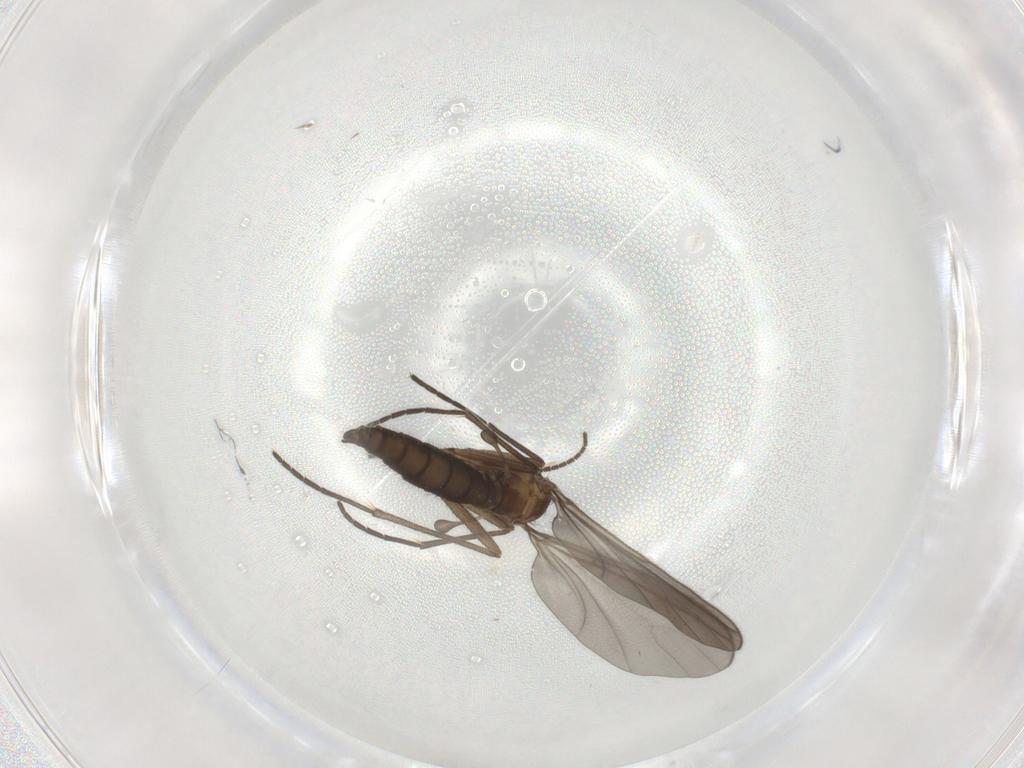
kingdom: Animalia
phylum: Arthropoda
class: Insecta
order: Diptera
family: Sciaridae
